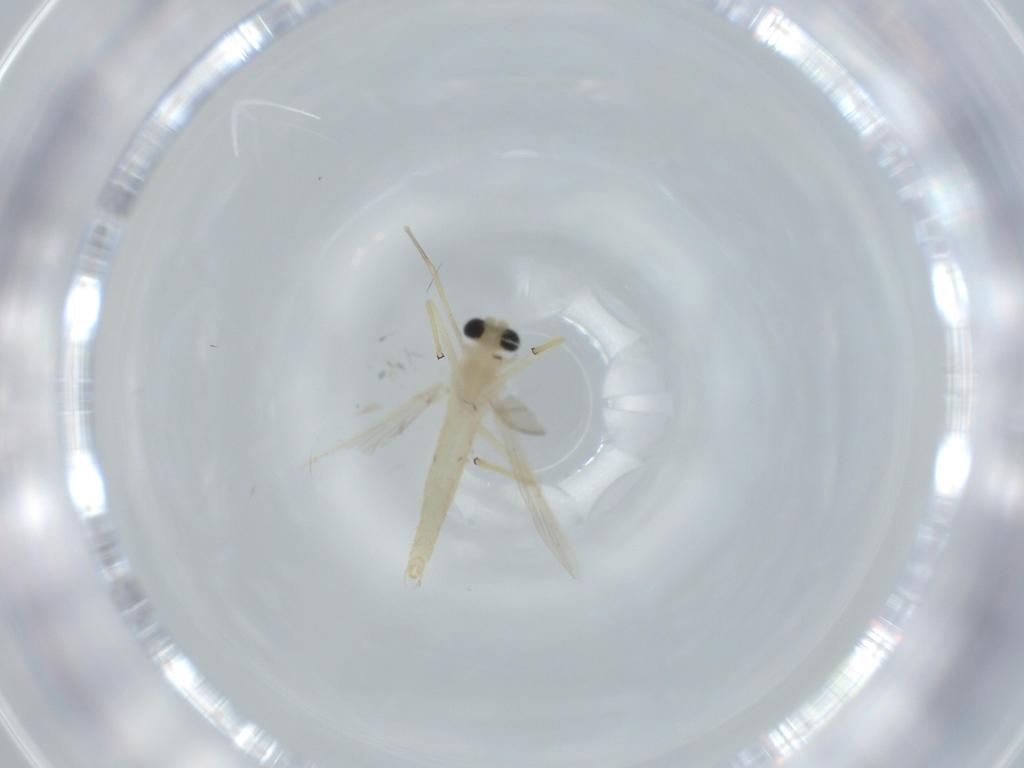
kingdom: Animalia
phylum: Arthropoda
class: Insecta
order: Diptera
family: Chironomidae
